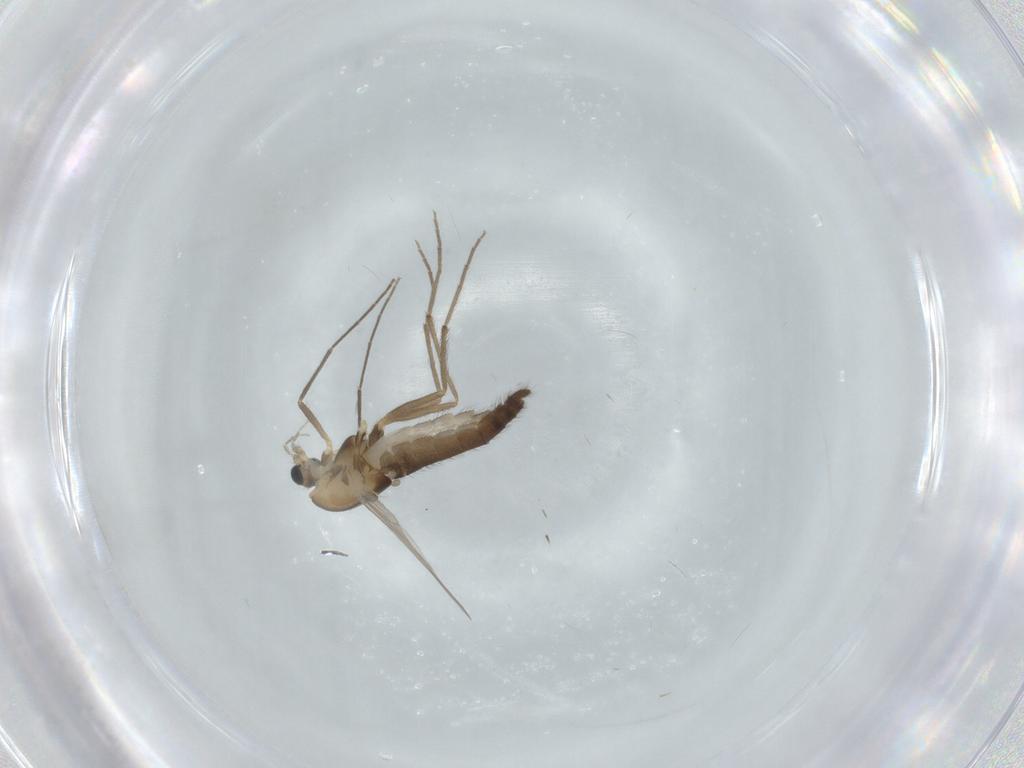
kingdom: Animalia
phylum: Arthropoda
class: Insecta
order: Diptera
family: Chironomidae
